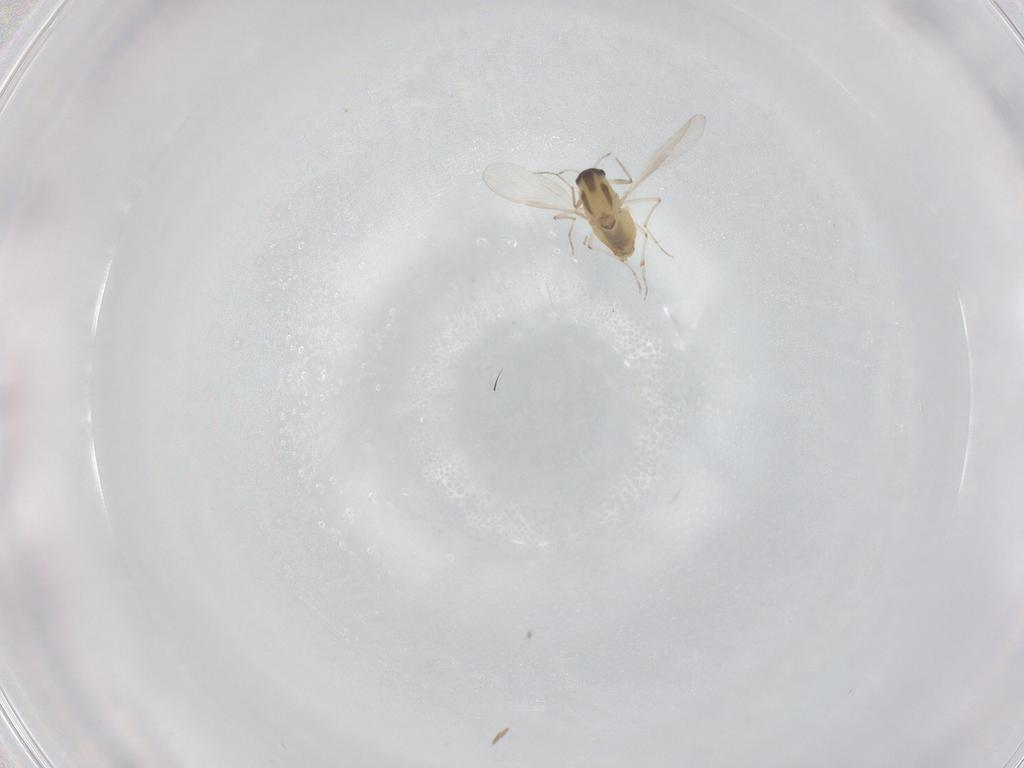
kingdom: Animalia
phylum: Arthropoda
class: Insecta
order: Diptera
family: Chironomidae
